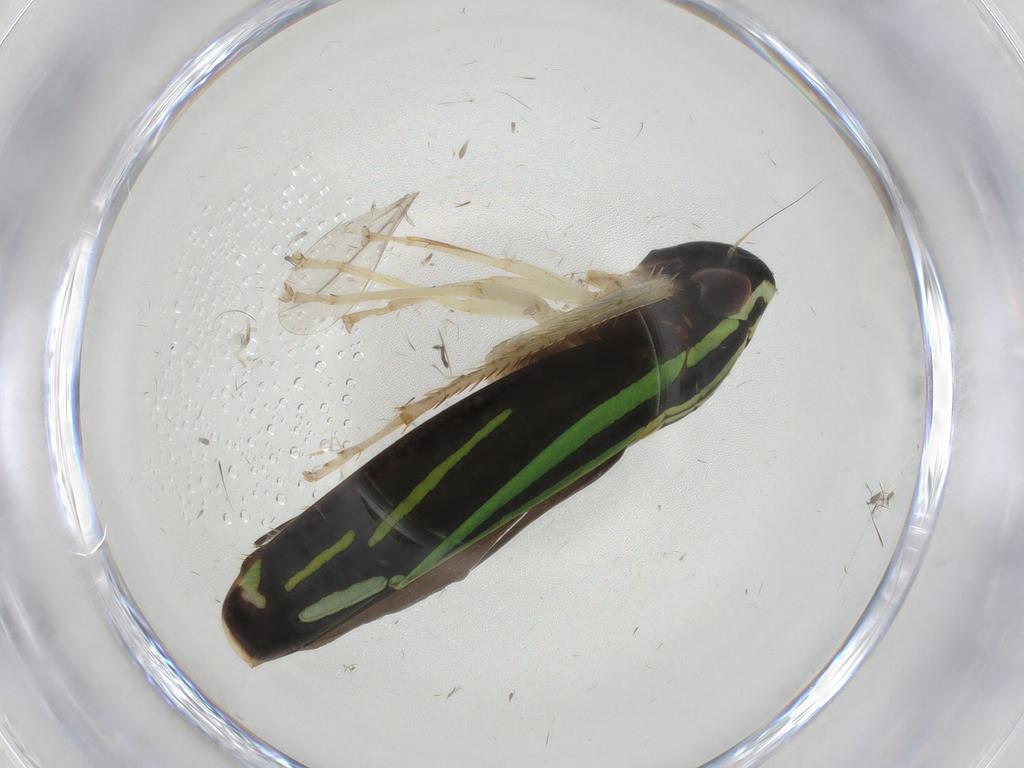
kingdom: Animalia
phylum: Arthropoda
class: Insecta
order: Hemiptera
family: Cicadellidae
